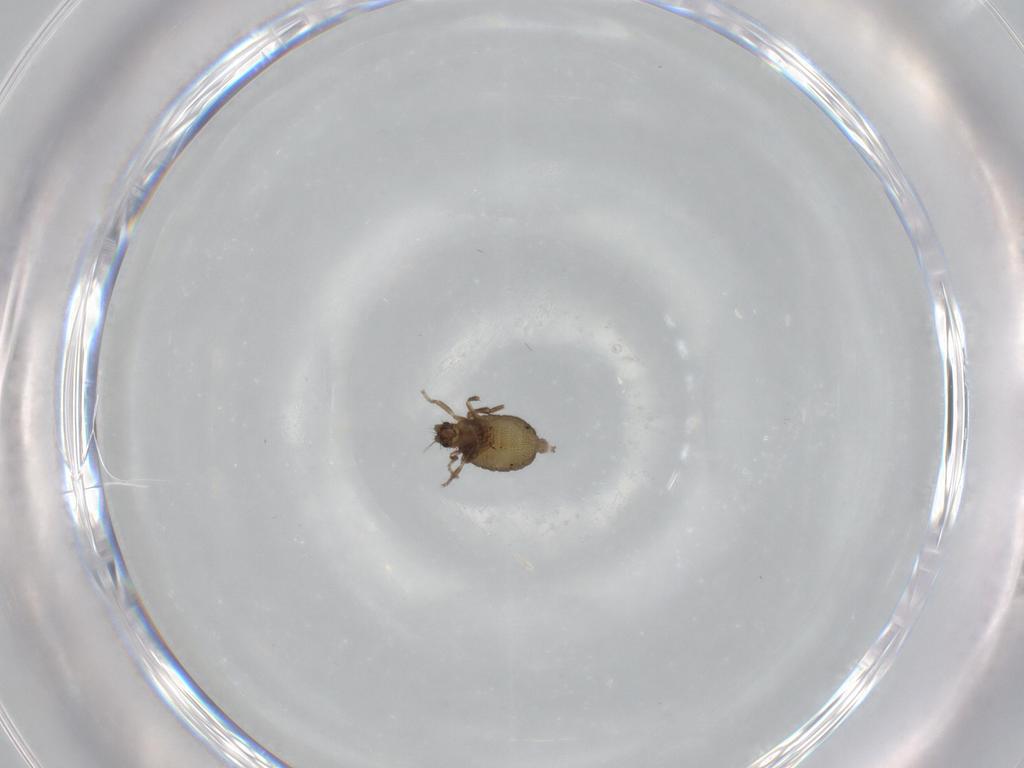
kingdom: Animalia
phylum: Arthropoda
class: Insecta
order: Diptera
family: Phoridae
